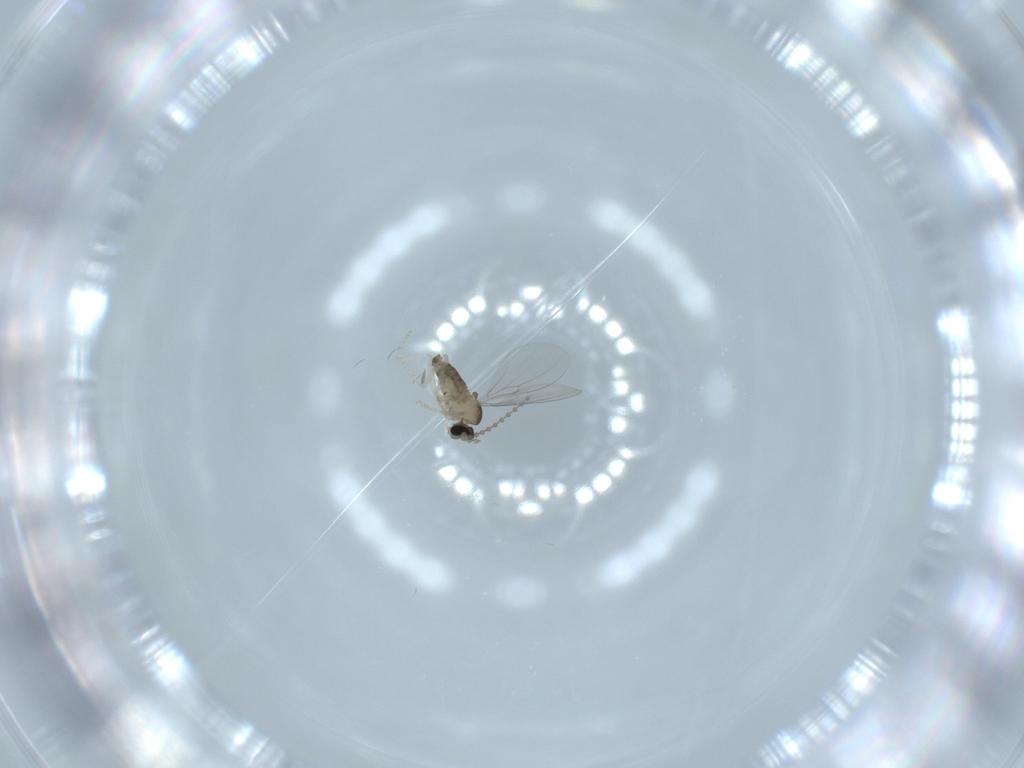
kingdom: Animalia
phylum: Arthropoda
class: Insecta
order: Diptera
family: Cecidomyiidae
